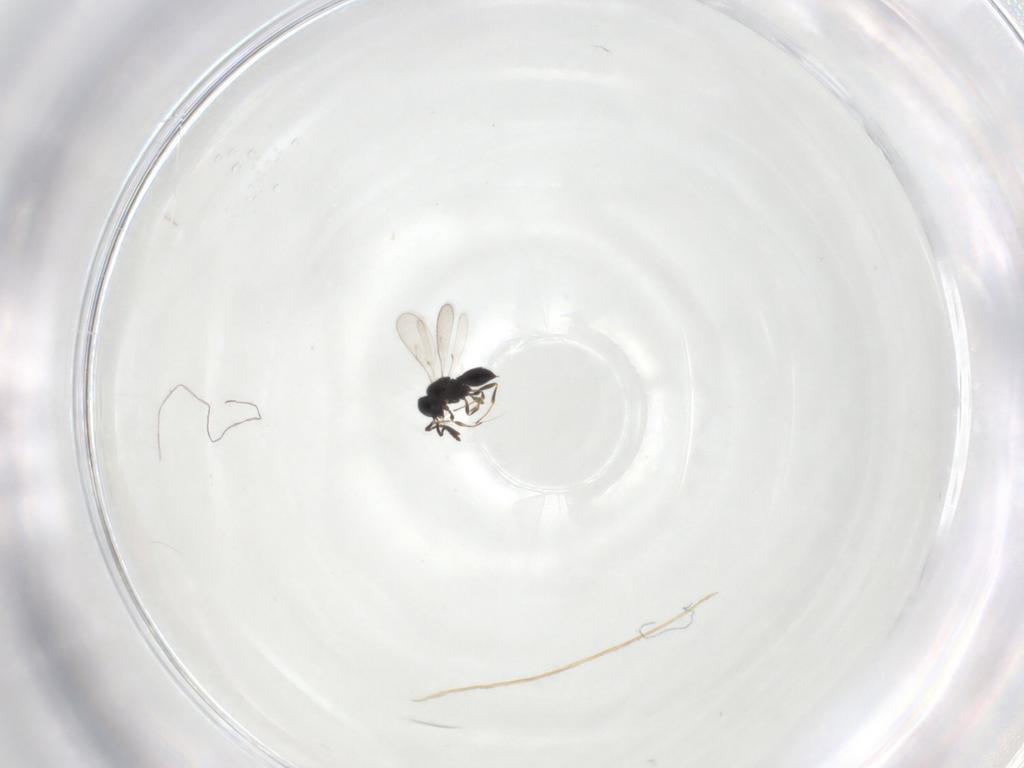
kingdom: Animalia
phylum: Arthropoda
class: Insecta
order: Hymenoptera
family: Scelionidae
